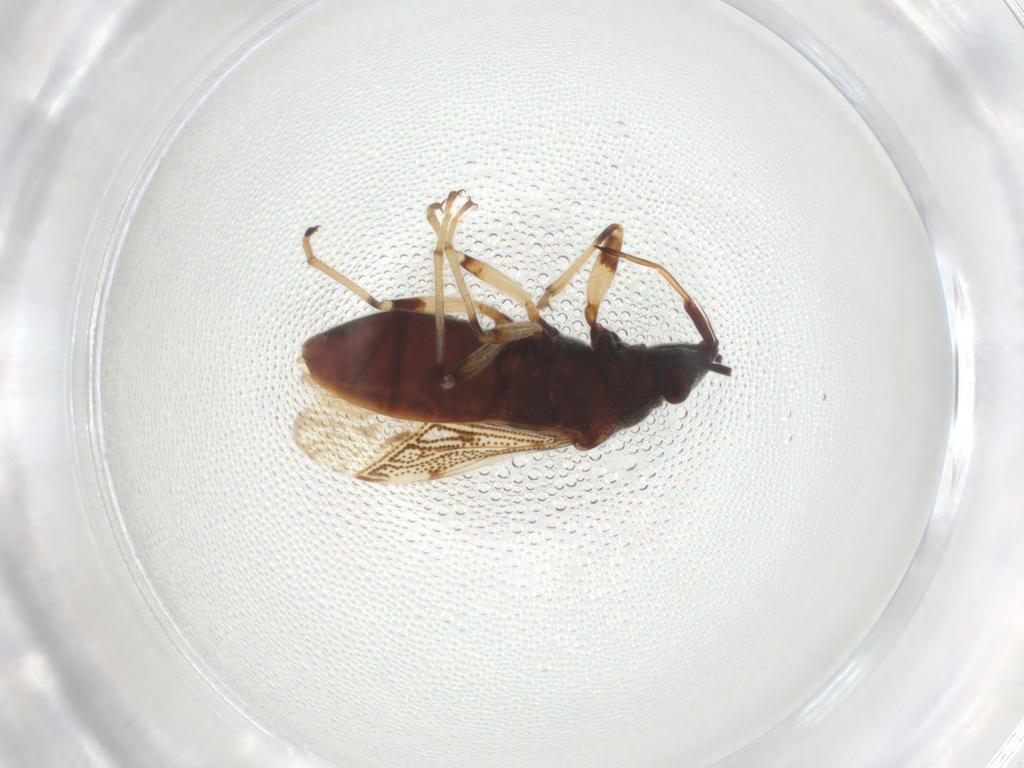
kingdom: Animalia
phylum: Arthropoda
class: Insecta
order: Hemiptera
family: Rhyparochromidae
